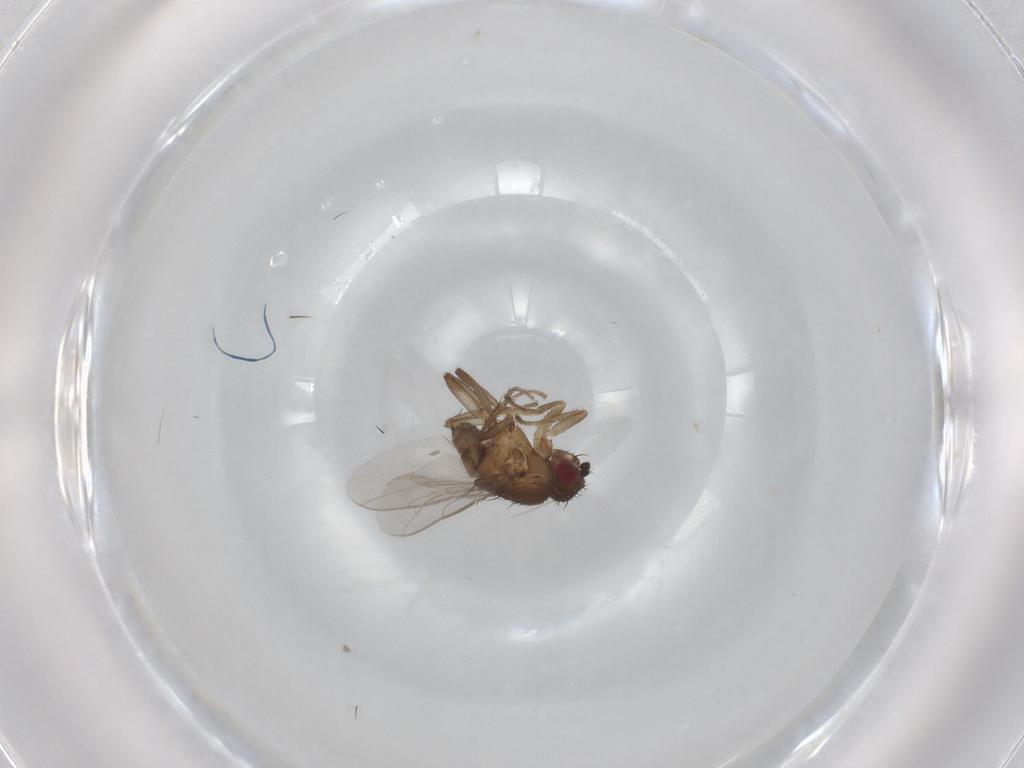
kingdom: Animalia
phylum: Arthropoda
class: Insecta
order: Diptera
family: Sphaeroceridae
